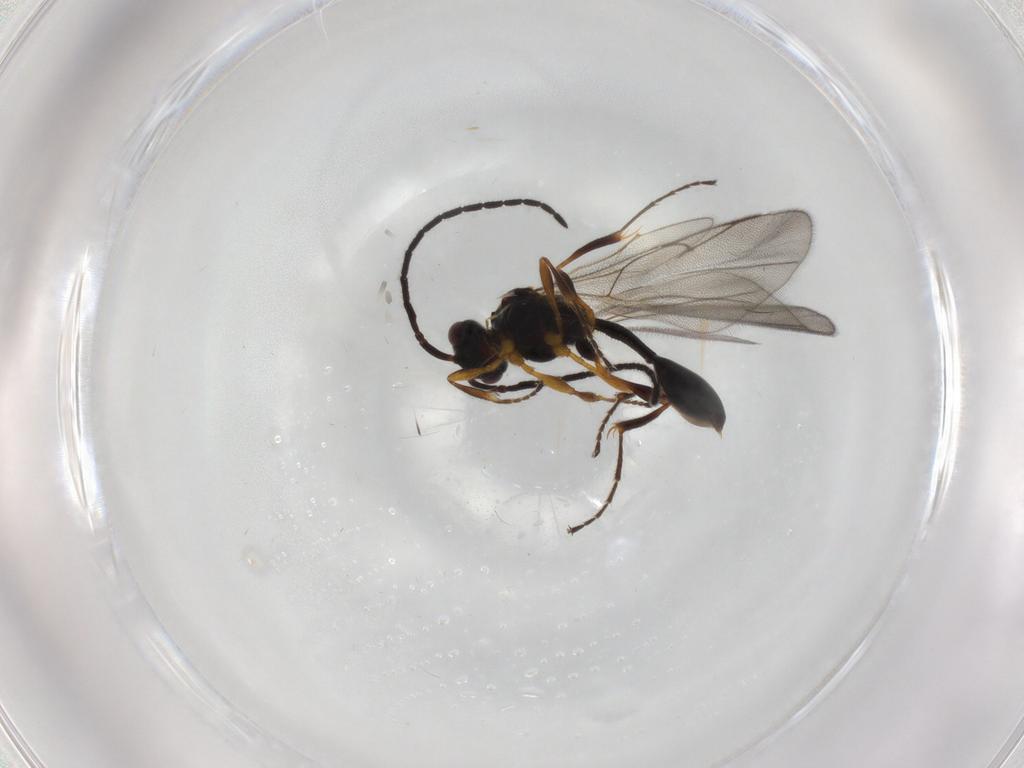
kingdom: Animalia
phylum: Arthropoda
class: Insecta
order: Hymenoptera
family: Diapriidae
